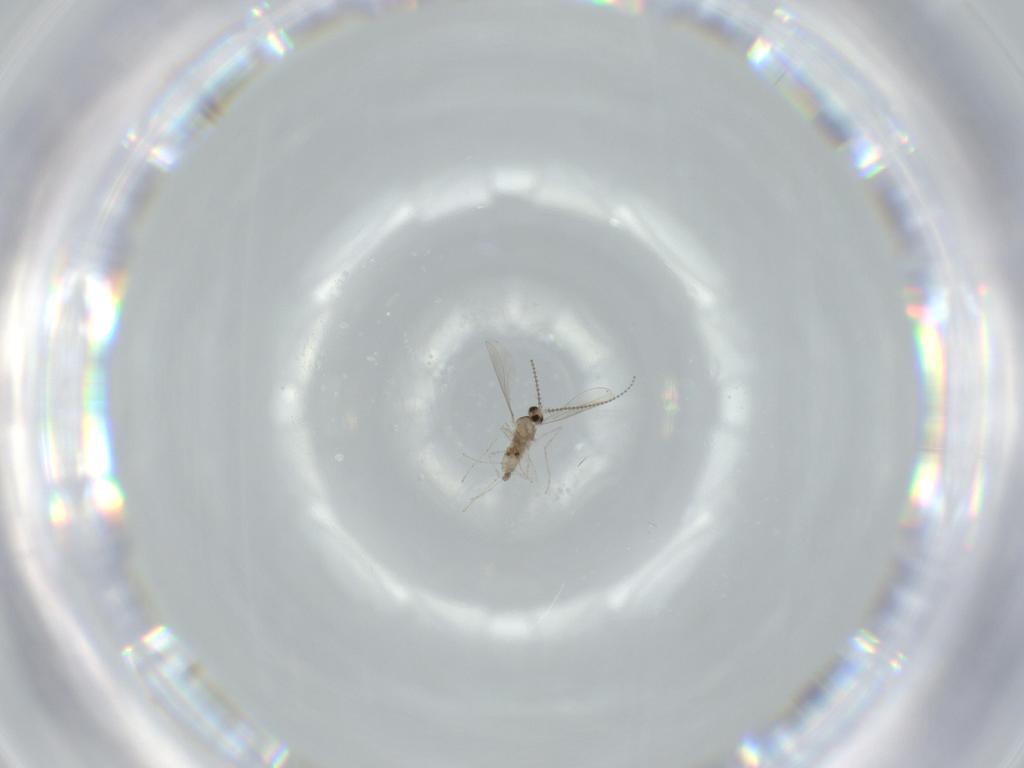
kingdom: Animalia
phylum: Arthropoda
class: Insecta
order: Diptera
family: Cecidomyiidae
